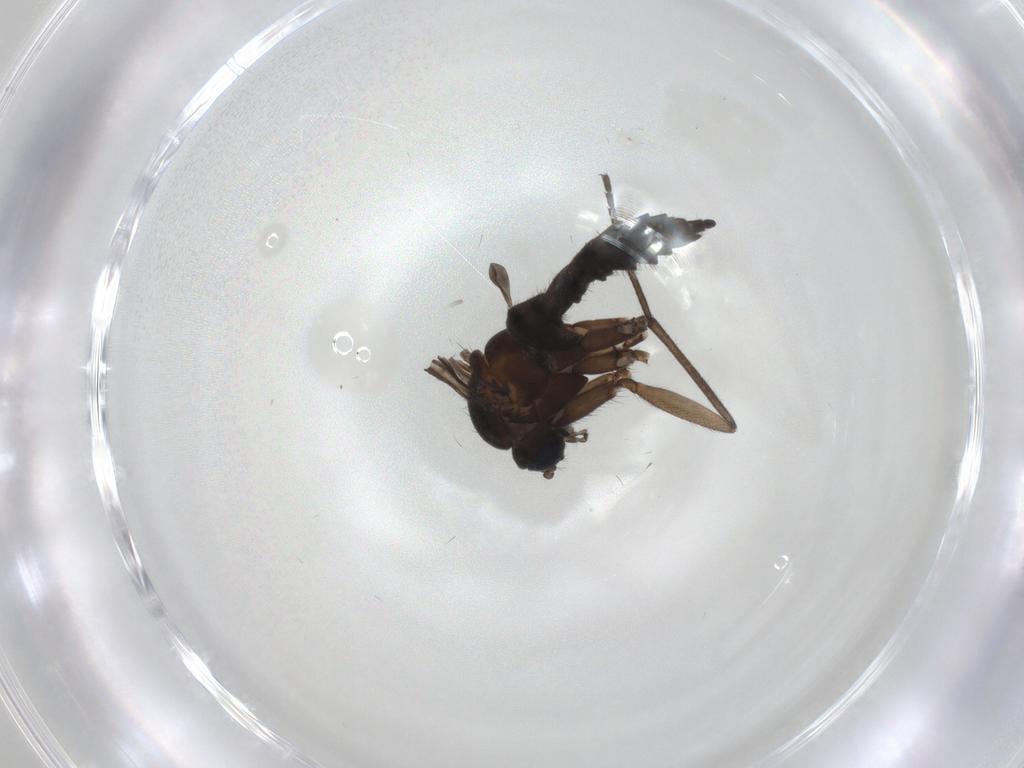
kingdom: Animalia
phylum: Arthropoda
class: Insecta
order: Diptera
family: Sciaridae
